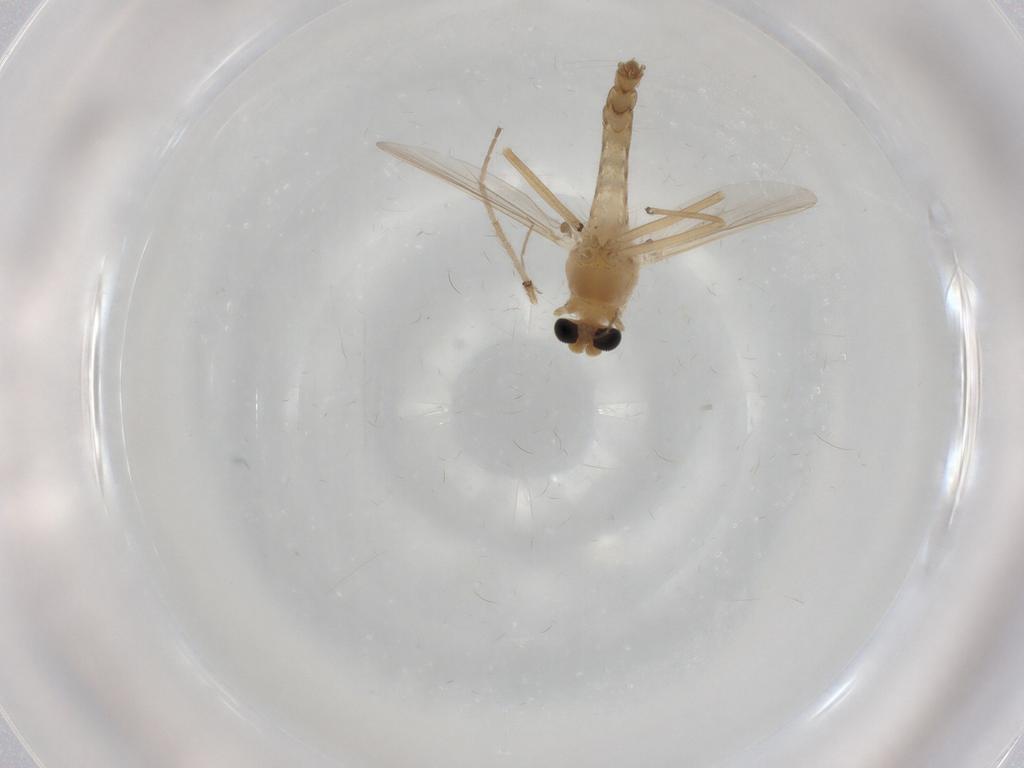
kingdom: Animalia
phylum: Arthropoda
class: Insecta
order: Diptera
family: Chironomidae
